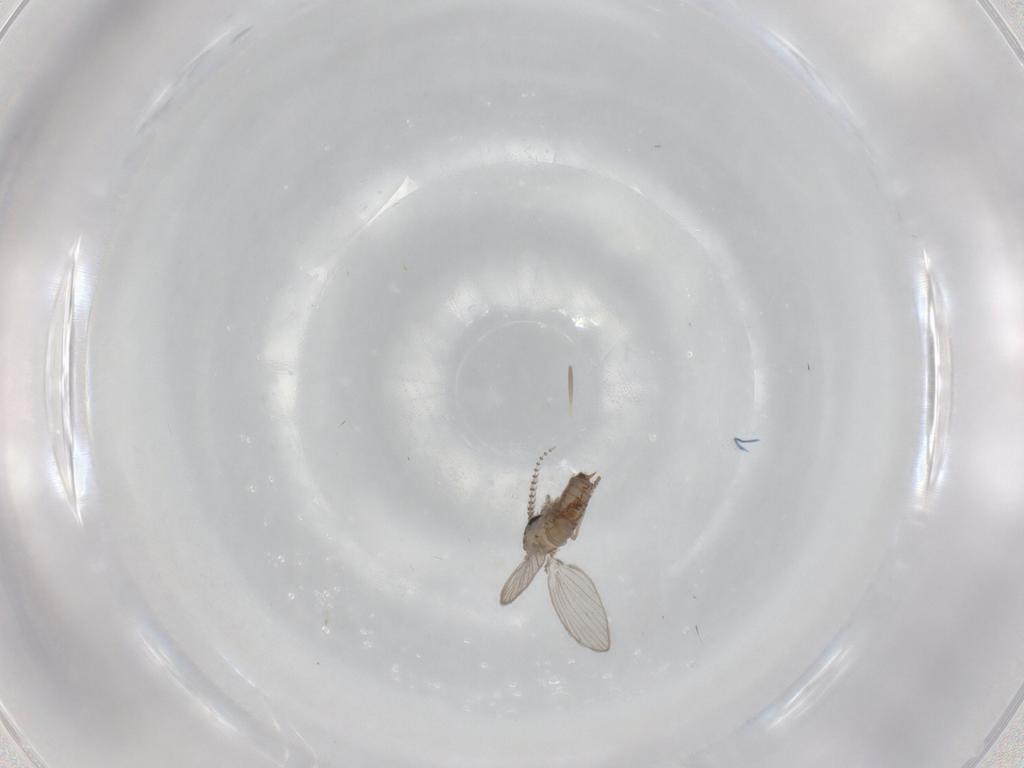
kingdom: Animalia
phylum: Arthropoda
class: Insecta
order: Diptera
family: Psychodidae
